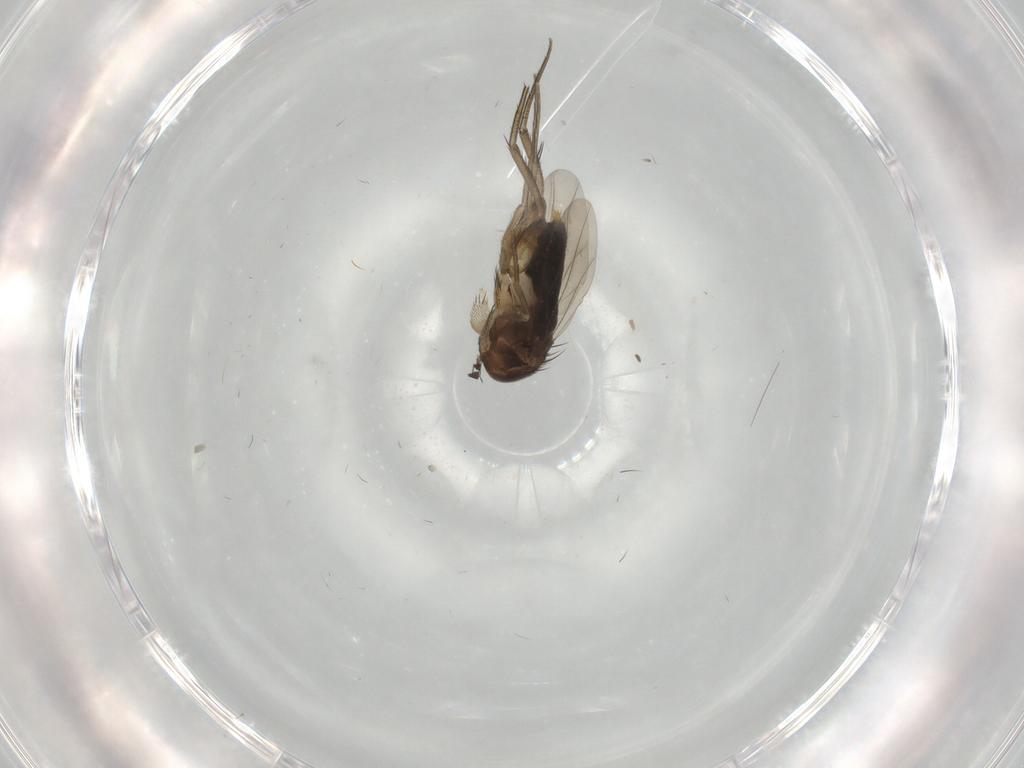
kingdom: Animalia
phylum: Arthropoda
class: Insecta
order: Diptera
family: Phoridae
